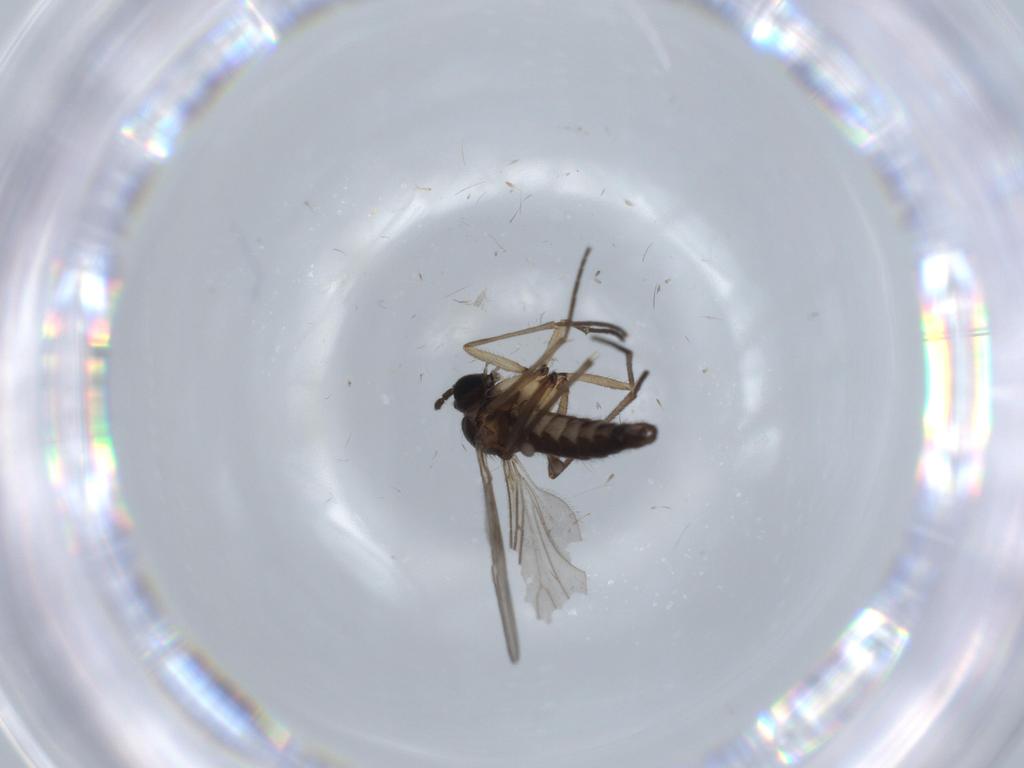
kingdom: Animalia
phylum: Arthropoda
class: Insecta
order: Diptera
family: Sciaridae
